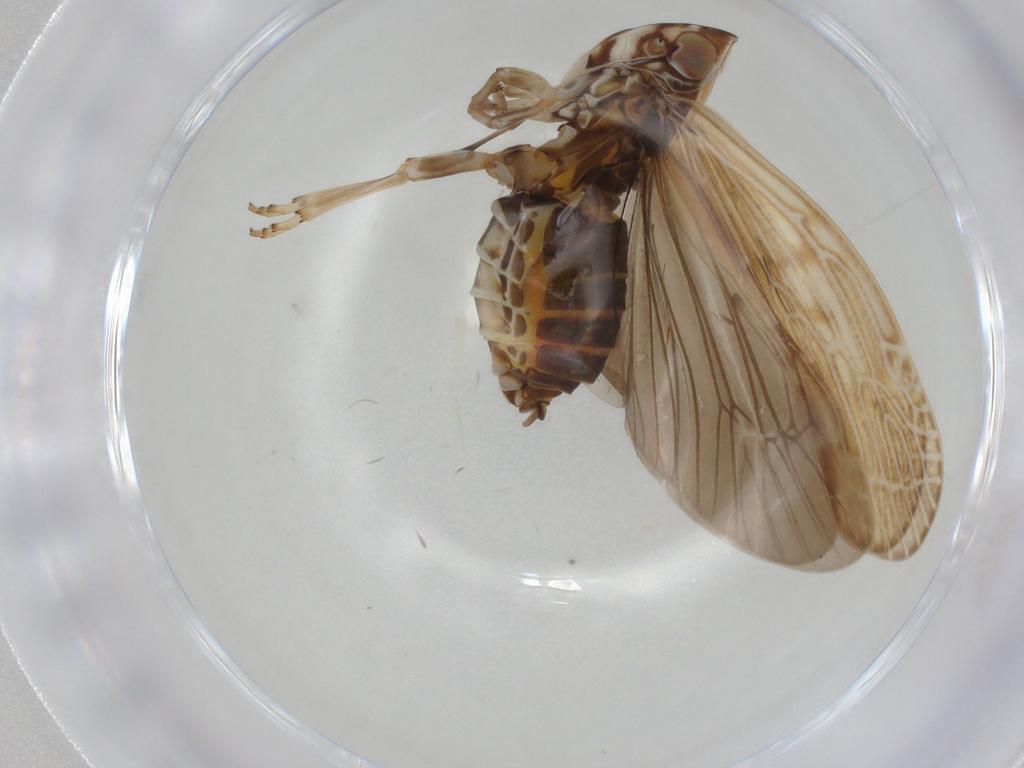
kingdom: Animalia
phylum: Arthropoda
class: Insecta
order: Hemiptera
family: Achilidae
